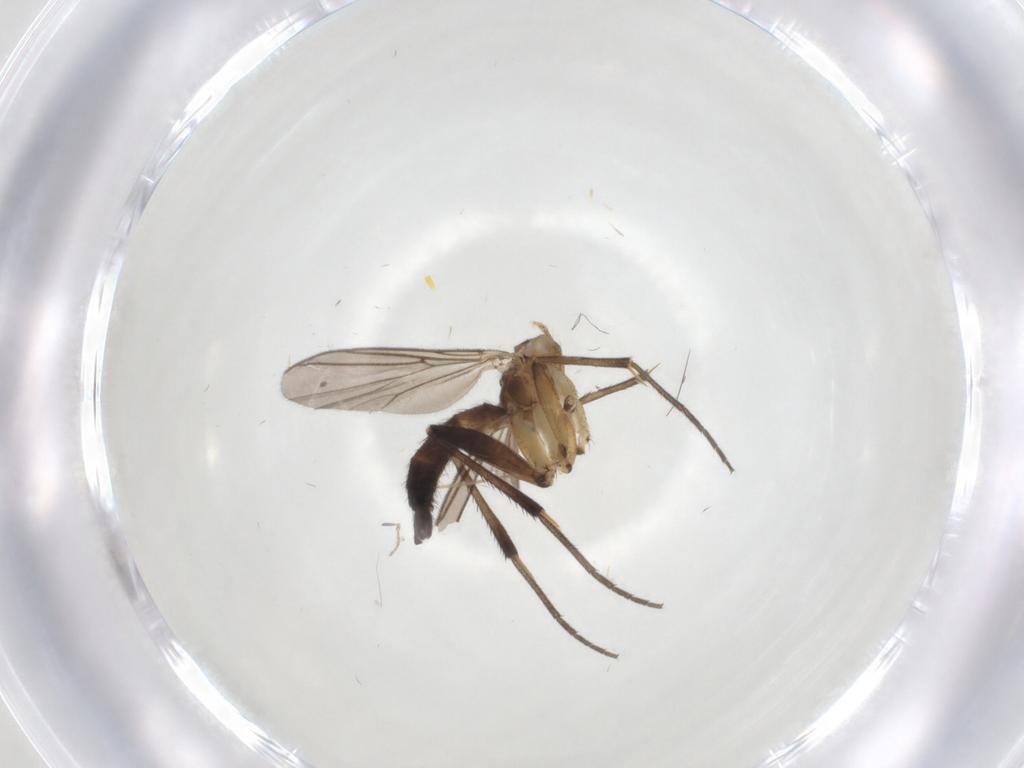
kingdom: Animalia
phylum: Arthropoda
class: Insecta
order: Diptera
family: Mycetophilidae
